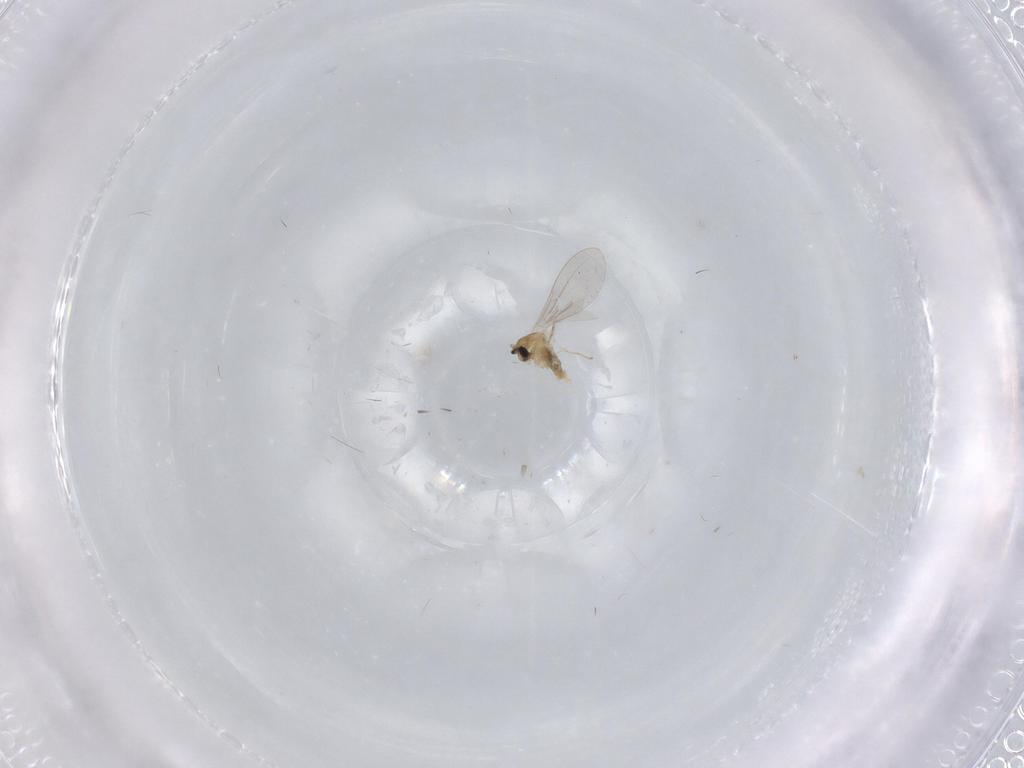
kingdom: Animalia
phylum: Arthropoda
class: Insecta
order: Diptera
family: Cecidomyiidae
